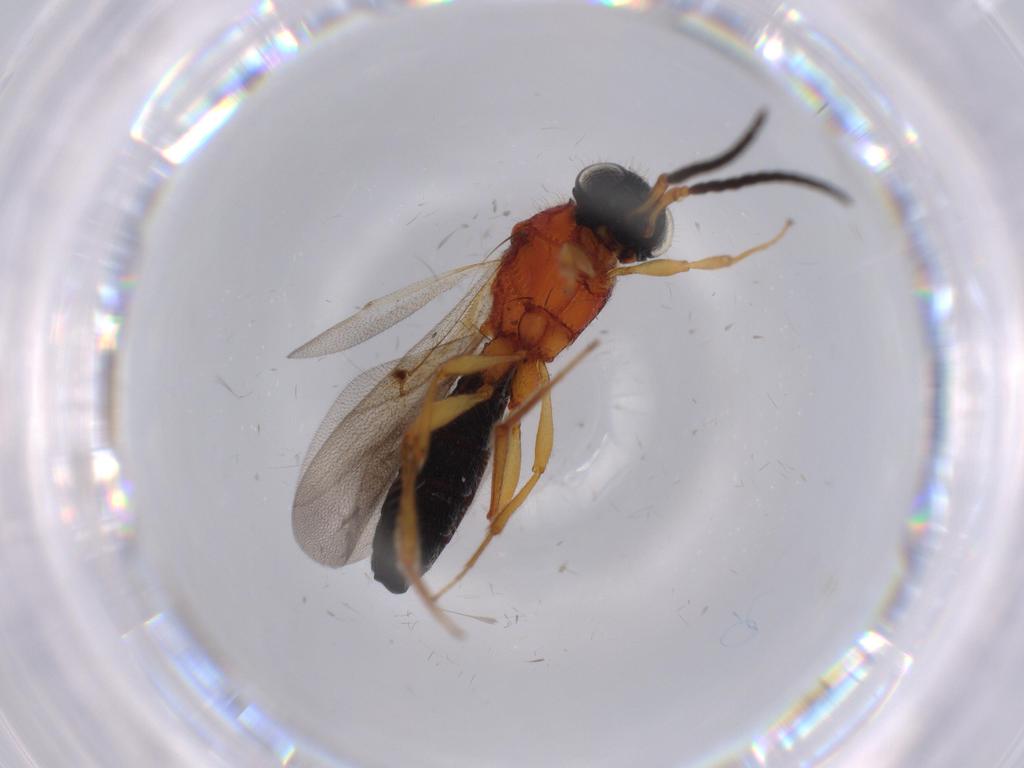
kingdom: Animalia
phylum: Arthropoda
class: Insecta
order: Hymenoptera
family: Scelionidae
